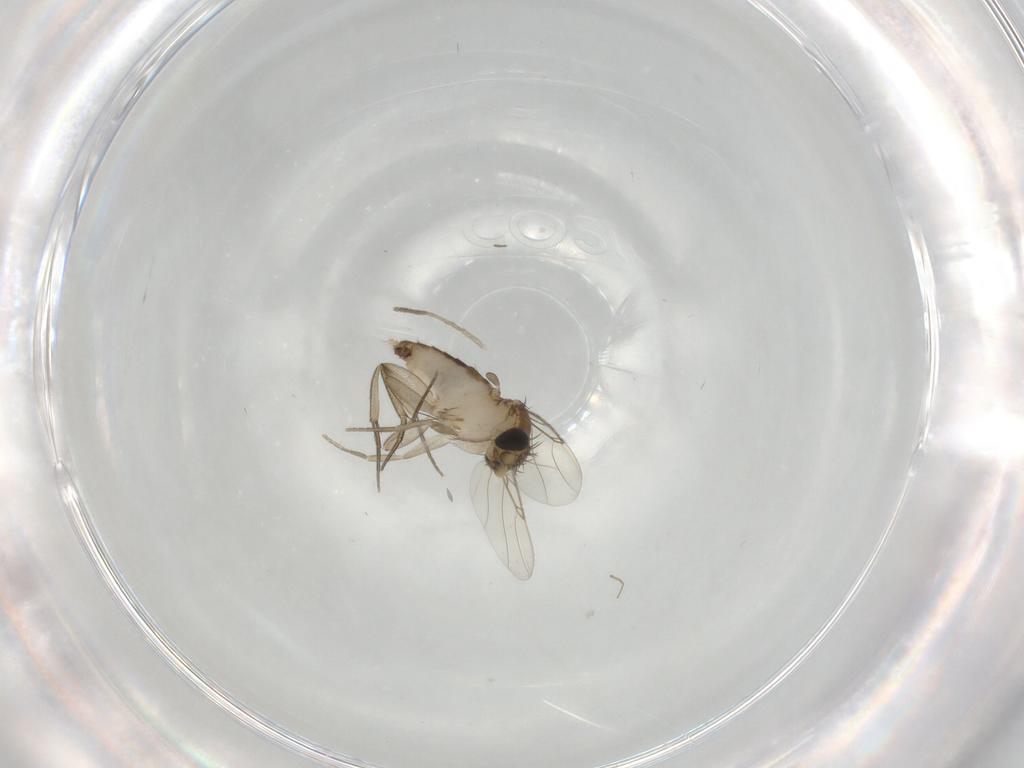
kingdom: Animalia
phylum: Arthropoda
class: Insecta
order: Diptera
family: Phoridae
